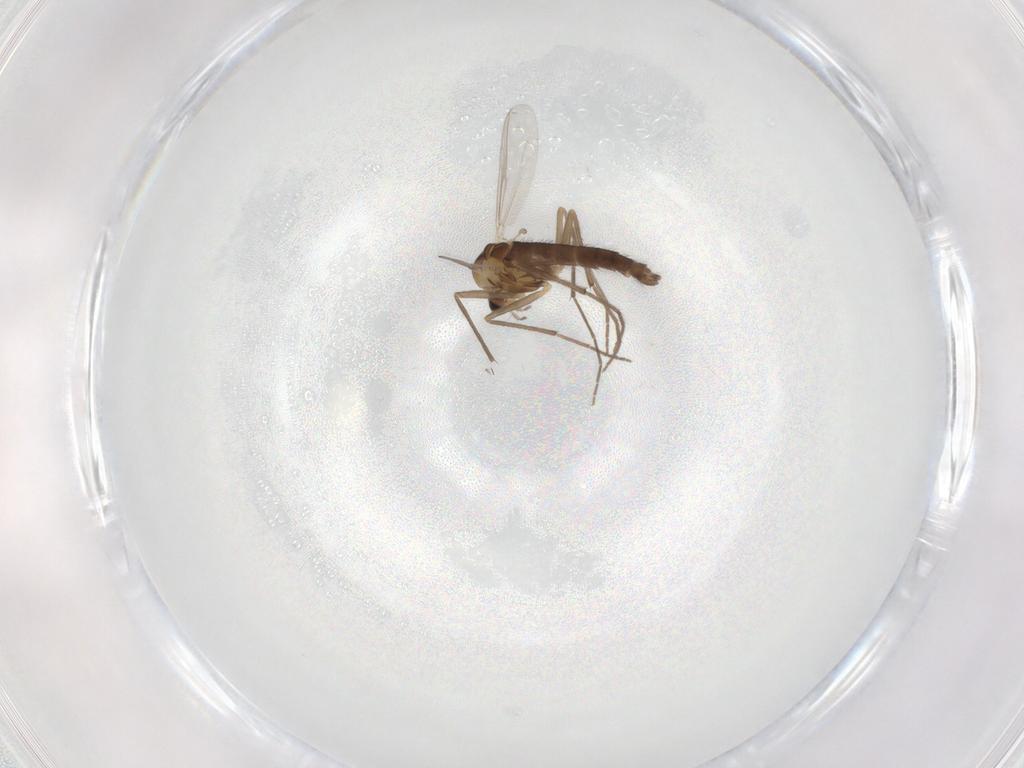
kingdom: Animalia
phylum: Arthropoda
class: Insecta
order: Diptera
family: Chironomidae
